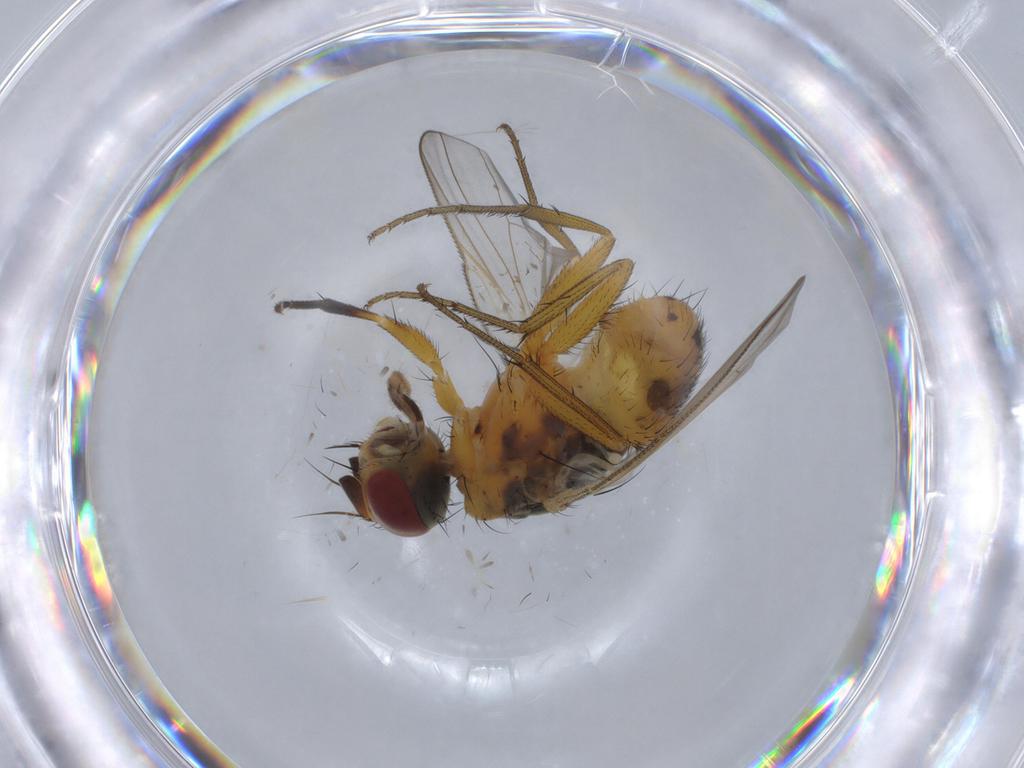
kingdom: Animalia
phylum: Arthropoda
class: Insecta
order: Diptera
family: Muscidae
